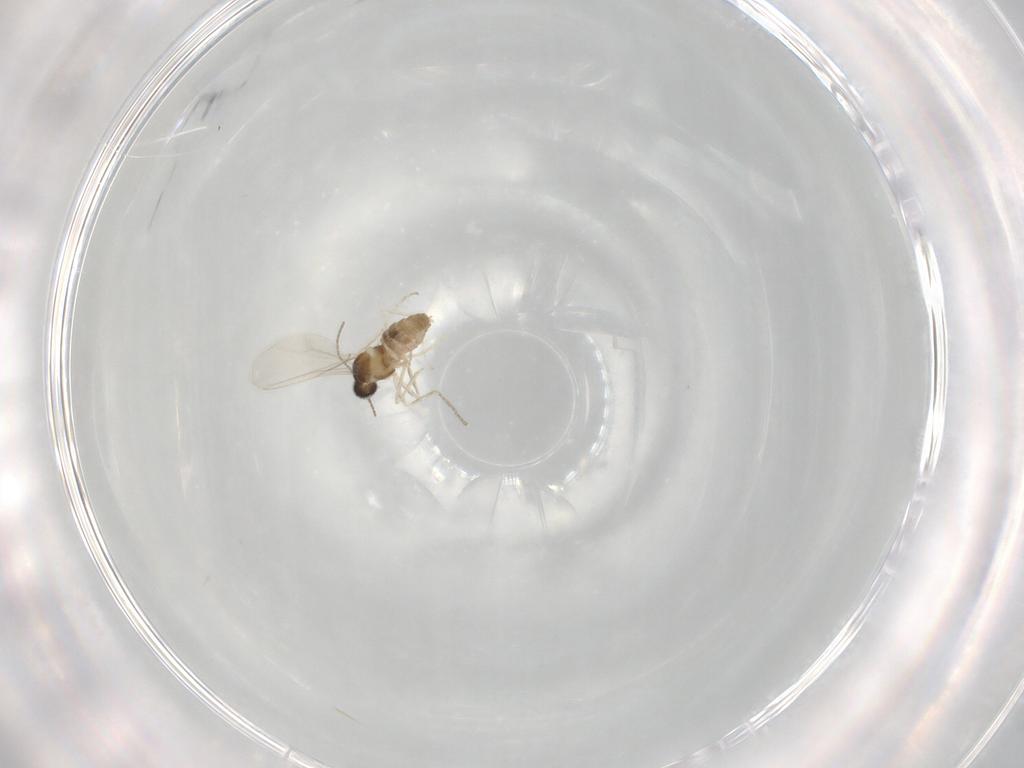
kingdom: Animalia
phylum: Arthropoda
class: Insecta
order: Diptera
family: Cecidomyiidae
